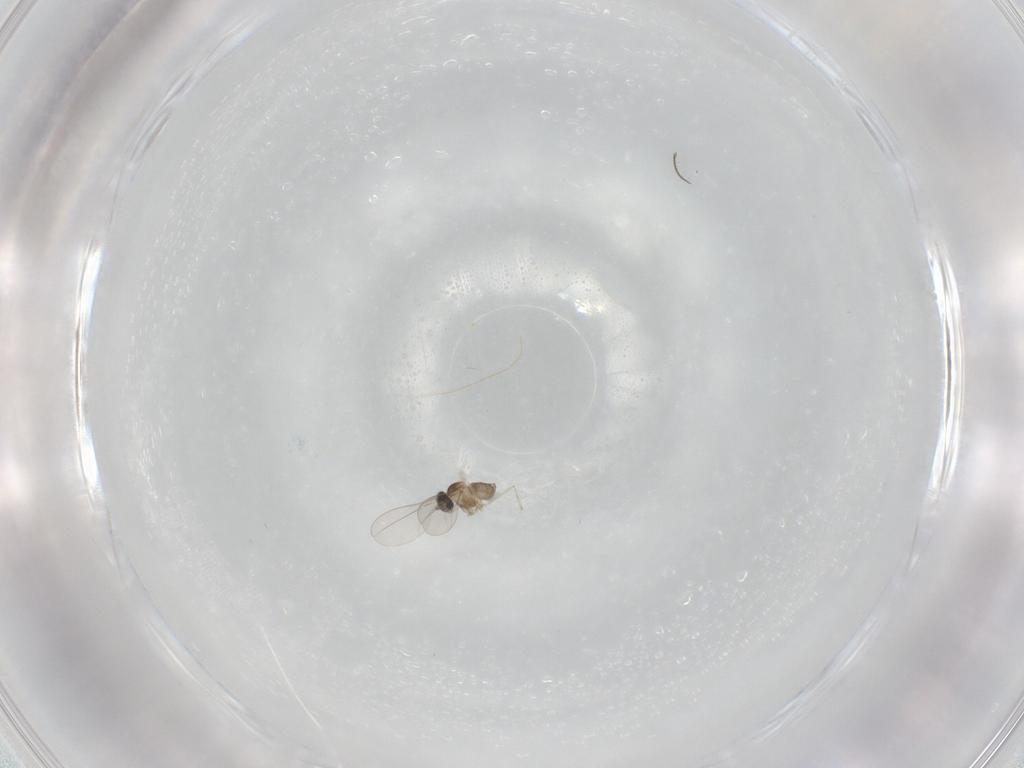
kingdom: Animalia
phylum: Arthropoda
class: Insecta
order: Diptera
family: Cecidomyiidae
